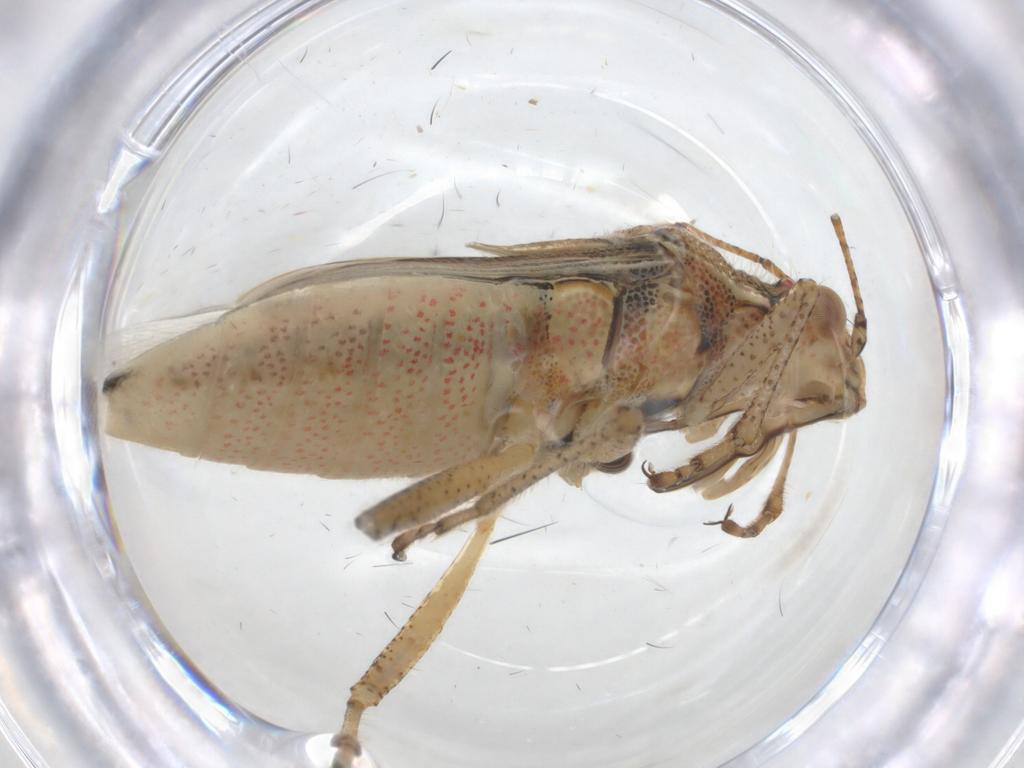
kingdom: Animalia
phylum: Arthropoda
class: Insecta
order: Hemiptera
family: Rhopalidae
